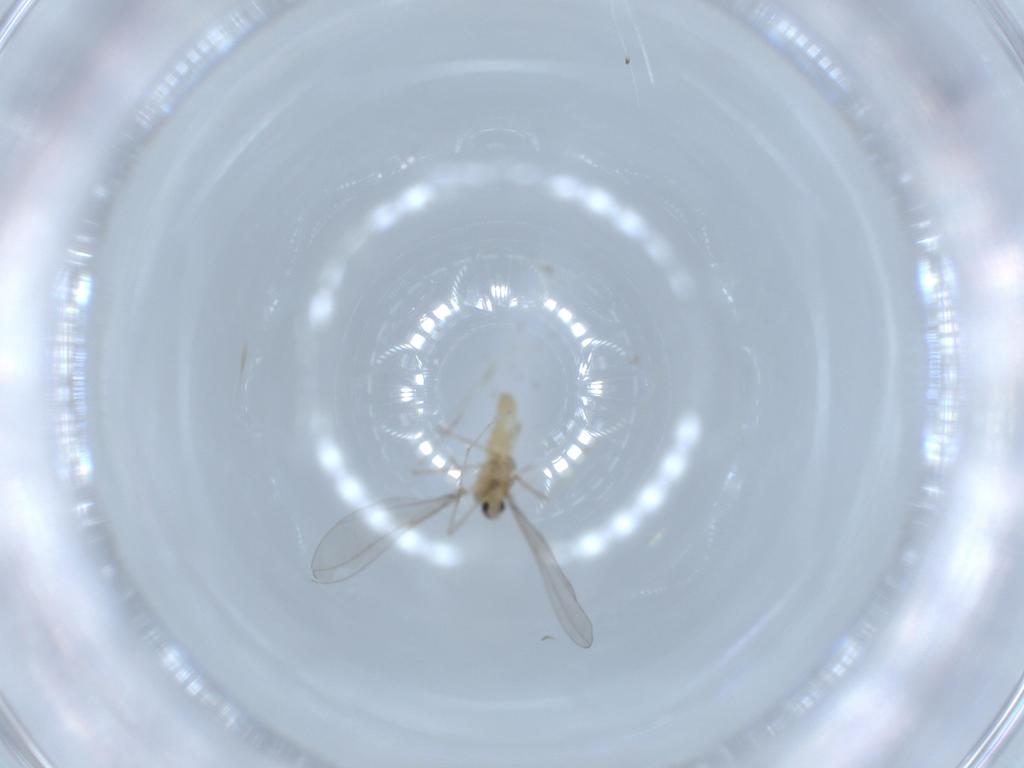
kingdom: Animalia
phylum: Arthropoda
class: Insecta
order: Diptera
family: Cecidomyiidae
